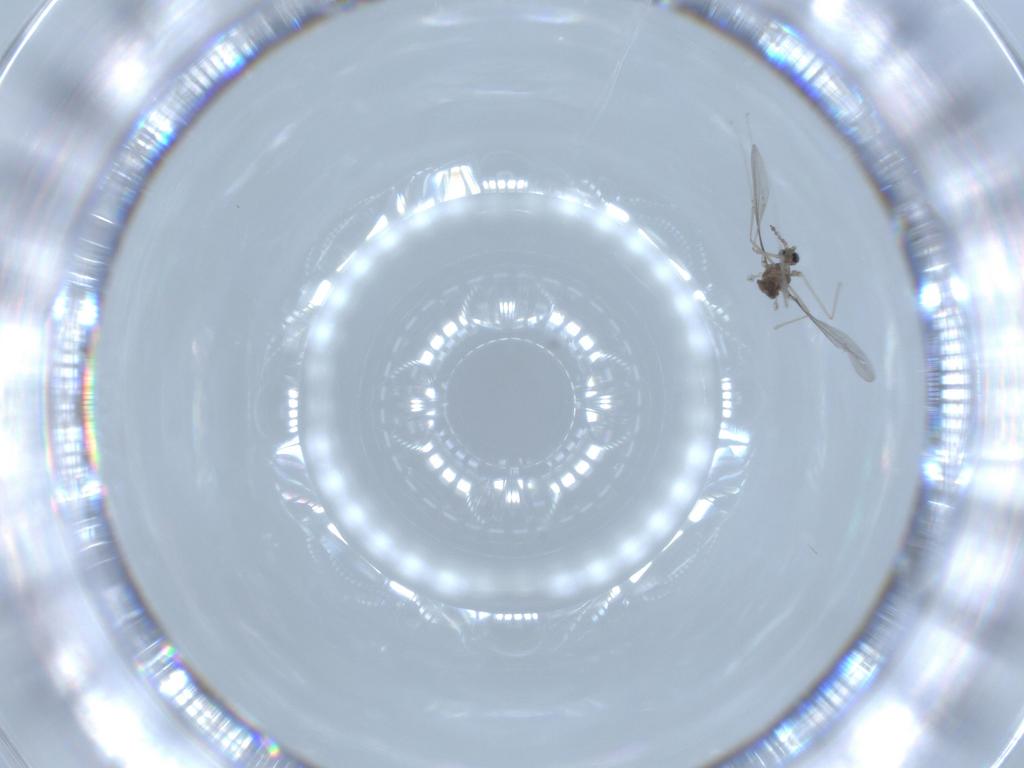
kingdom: Animalia
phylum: Arthropoda
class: Insecta
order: Diptera
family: Cecidomyiidae
